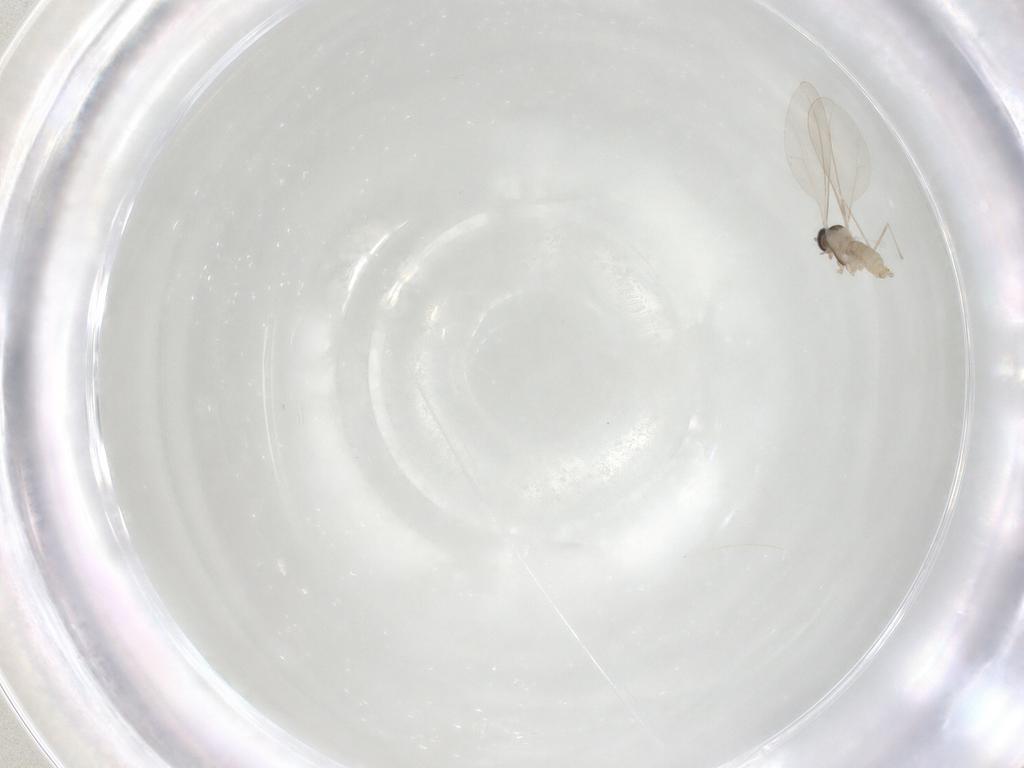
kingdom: Animalia
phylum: Arthropoda
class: Insecta
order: Diptera
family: Cecidomyiidae
